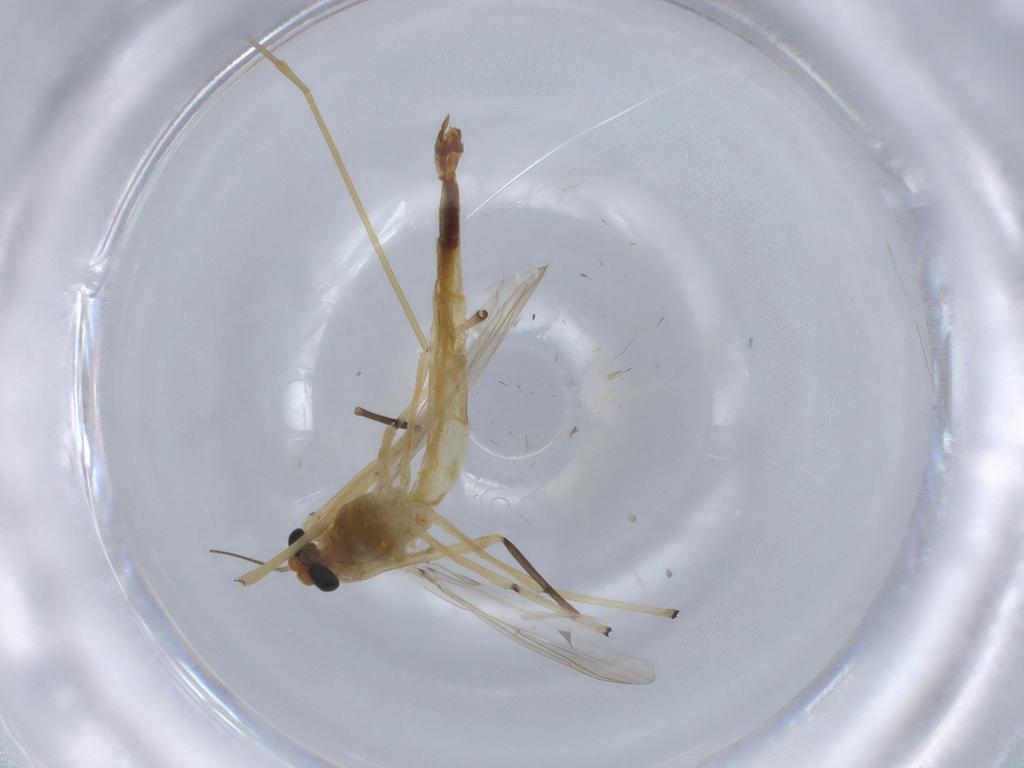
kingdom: Animalia
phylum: Arthropoda
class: Insecta
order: Diptera
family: Chironomidae
